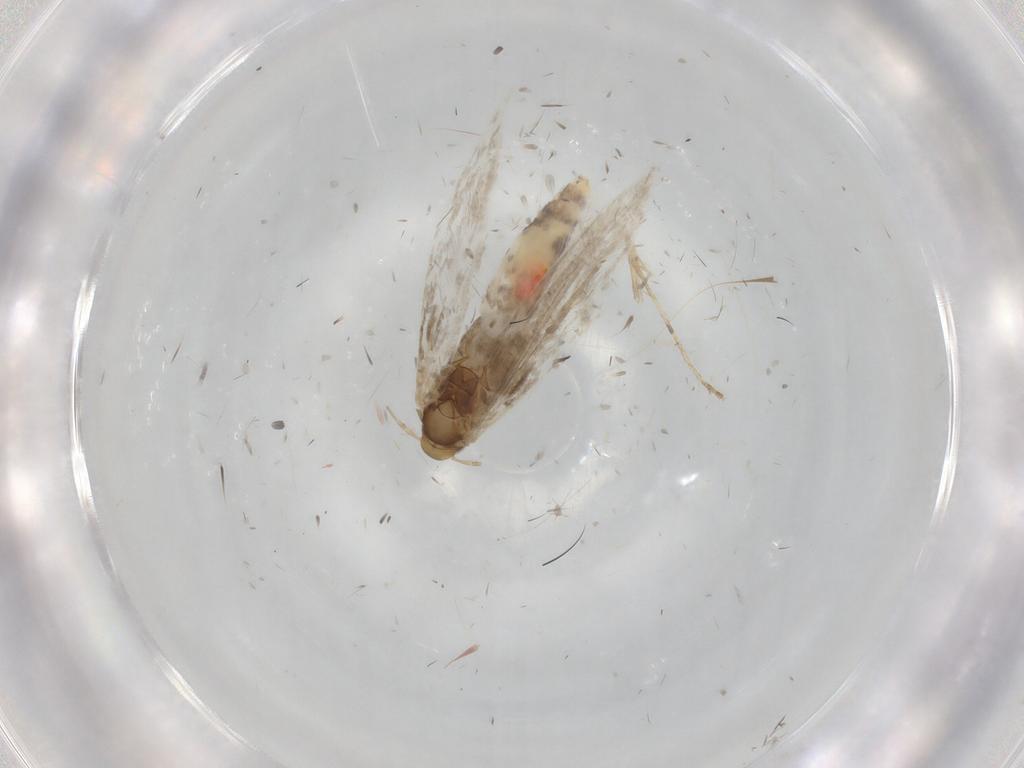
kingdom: Animalia
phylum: Arthropoda
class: Insecta
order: Lepidoptera
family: Gracillariidae
